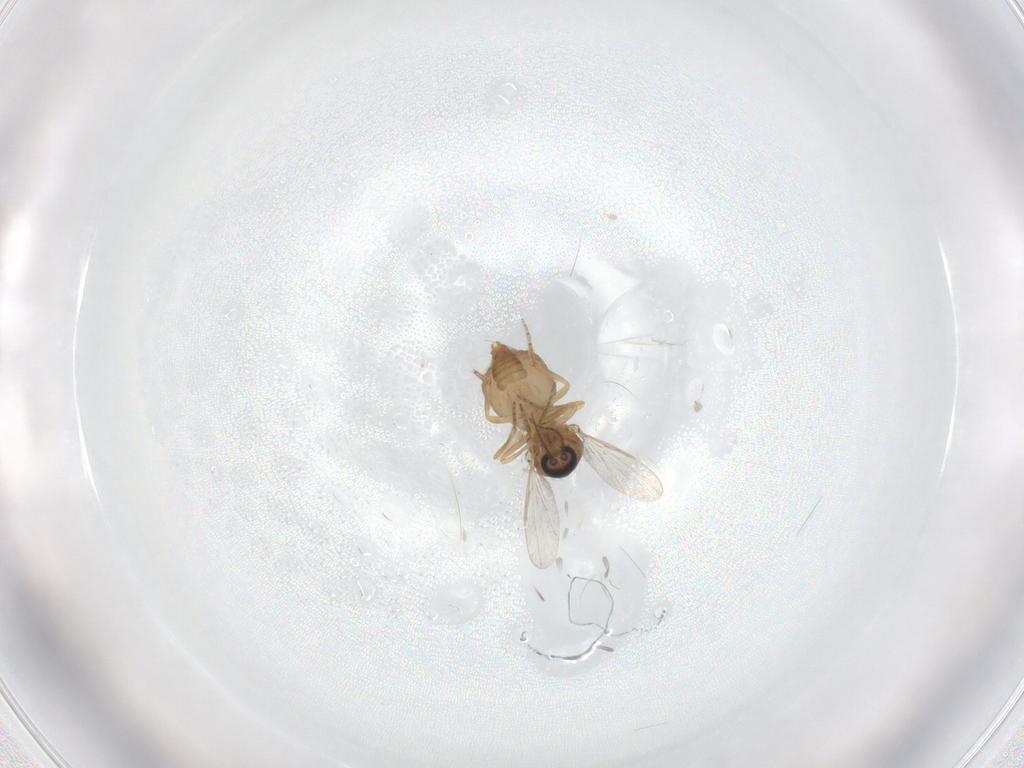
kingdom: Animalia
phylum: Arthropoda
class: Insecta
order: Diptera
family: Ceratopogonidae
